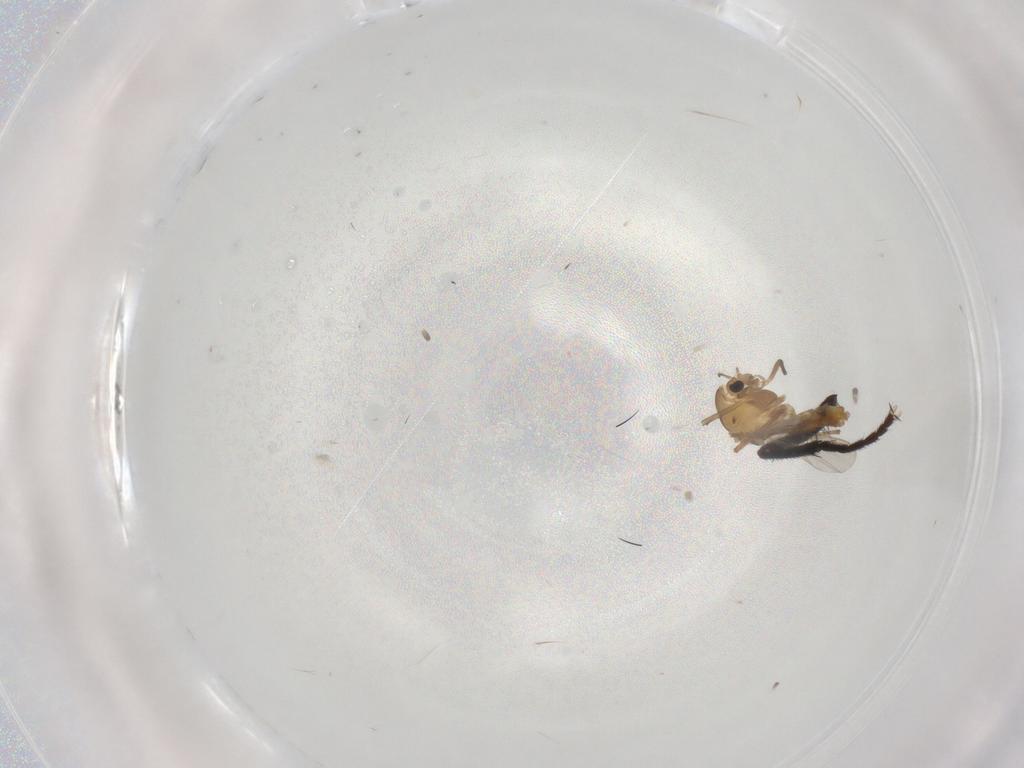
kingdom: Animalia
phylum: Arthropoda
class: Insecta
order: Diptera
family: Chironomidae
